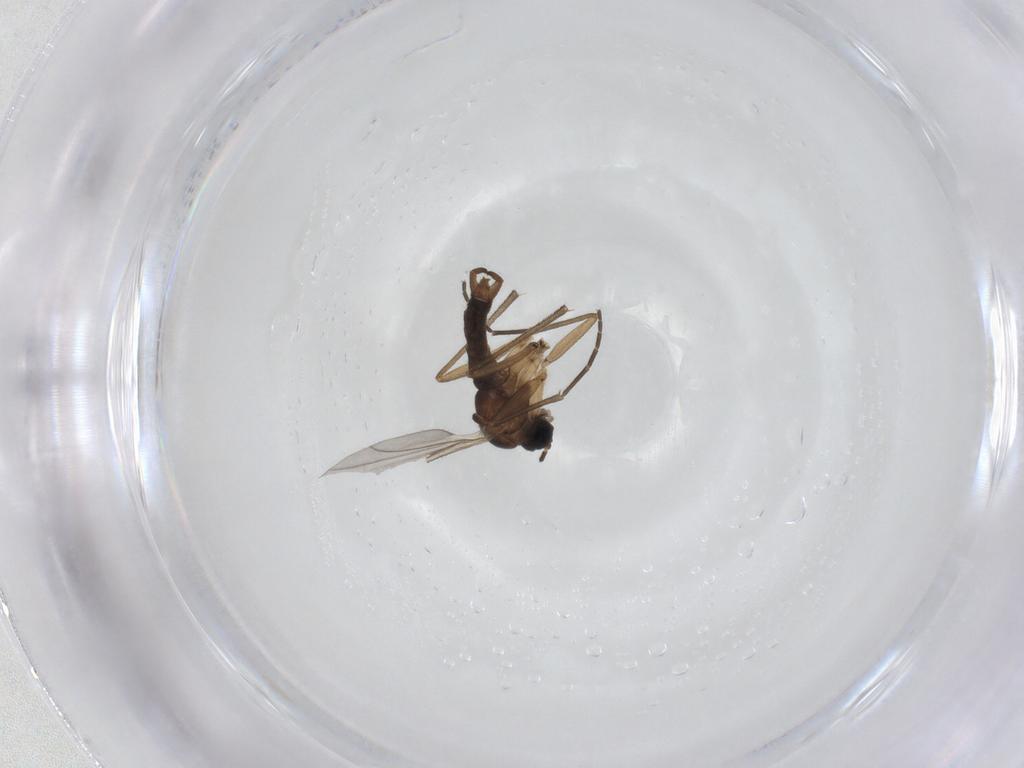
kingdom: Animalia
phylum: Arthropoda
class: Insecta
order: Diptera
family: Sciaridae
